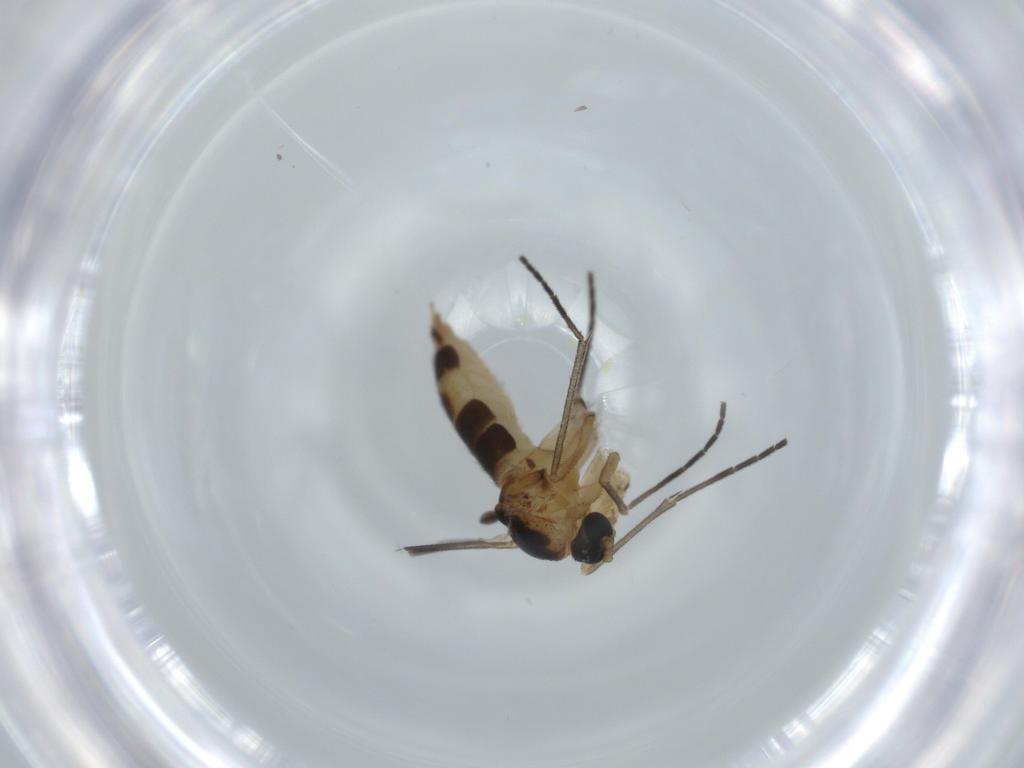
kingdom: Animalia
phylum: Arthropoda
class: Insecta
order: Diptera
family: Sciaridae
